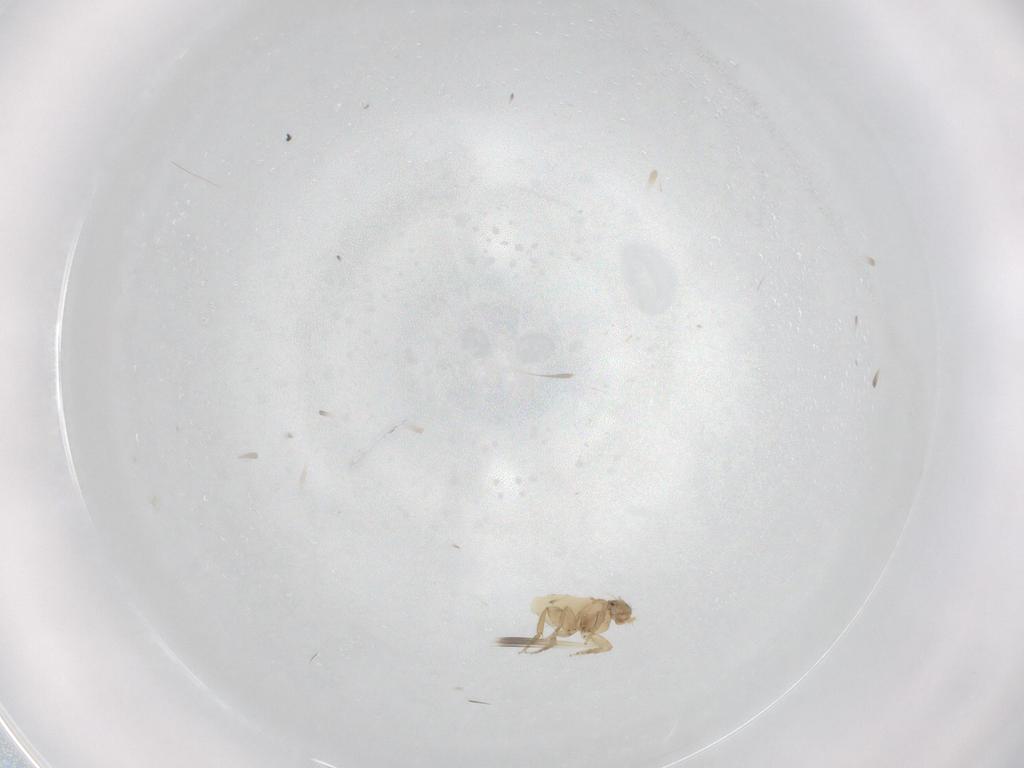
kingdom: Animalia
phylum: Arthropoda
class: Insecta
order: Diptera
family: Phoridae
